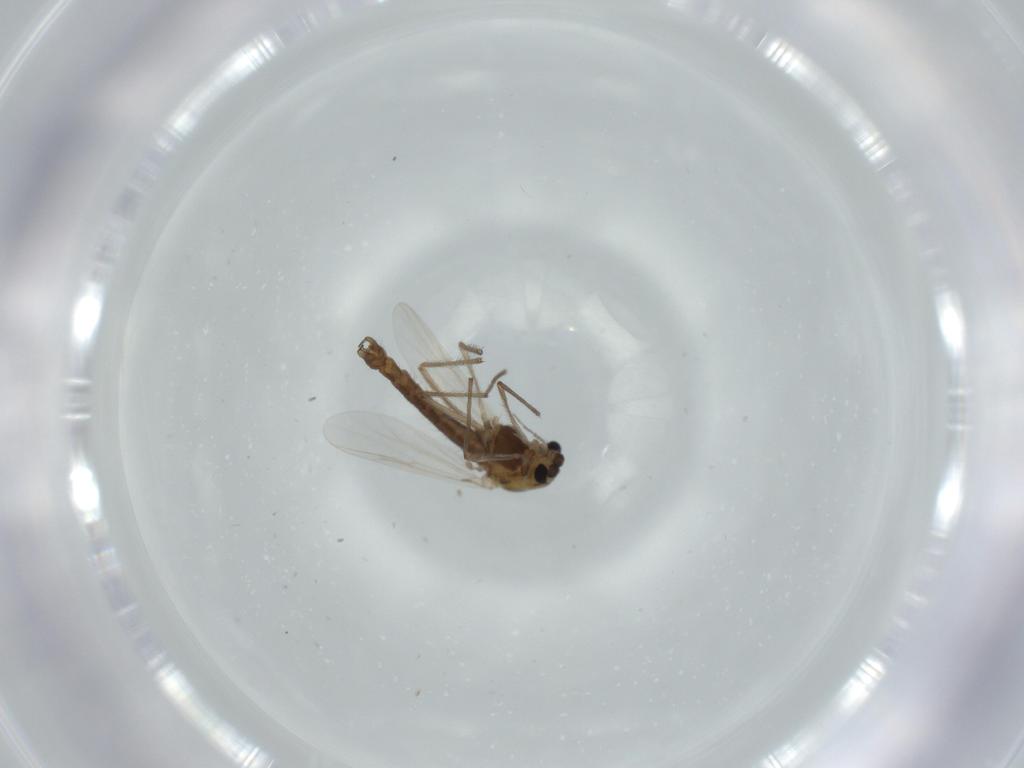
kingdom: Animalia
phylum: Arthropoda
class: Insecta
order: Diptera
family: Chironomidae
